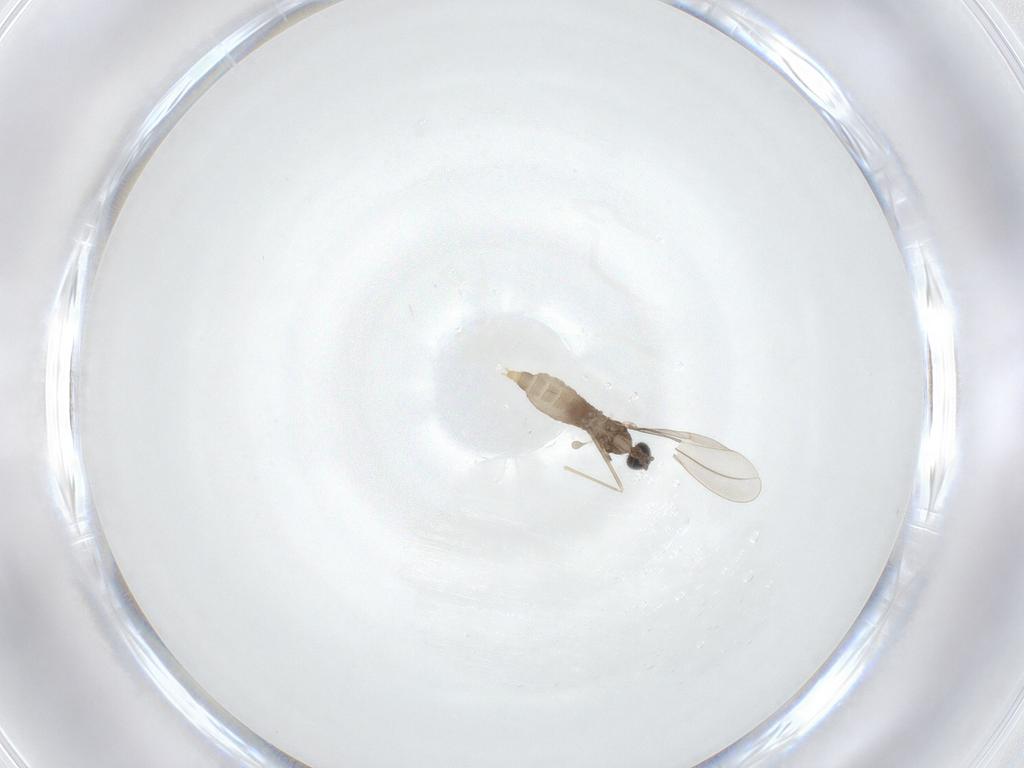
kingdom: Animalia
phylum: Arthropoda
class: Insecta
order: Diptera
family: Cecidomyiidae
